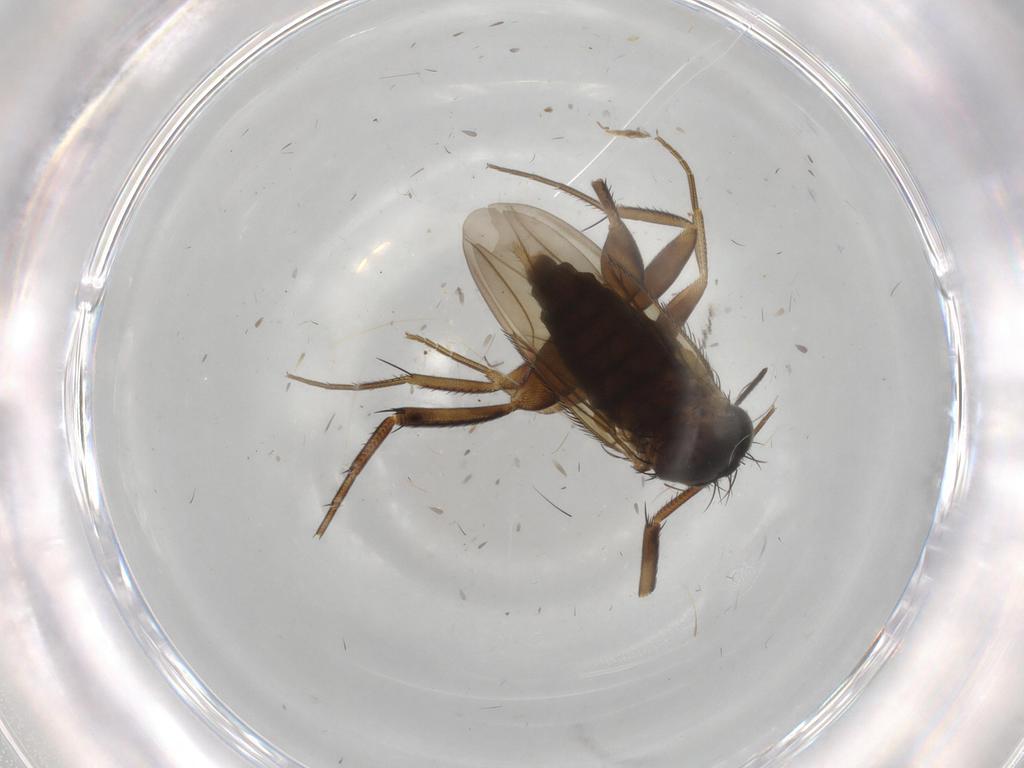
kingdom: Animalia
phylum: Arthropoda
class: Insecta
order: Diptera
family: Phoridae
